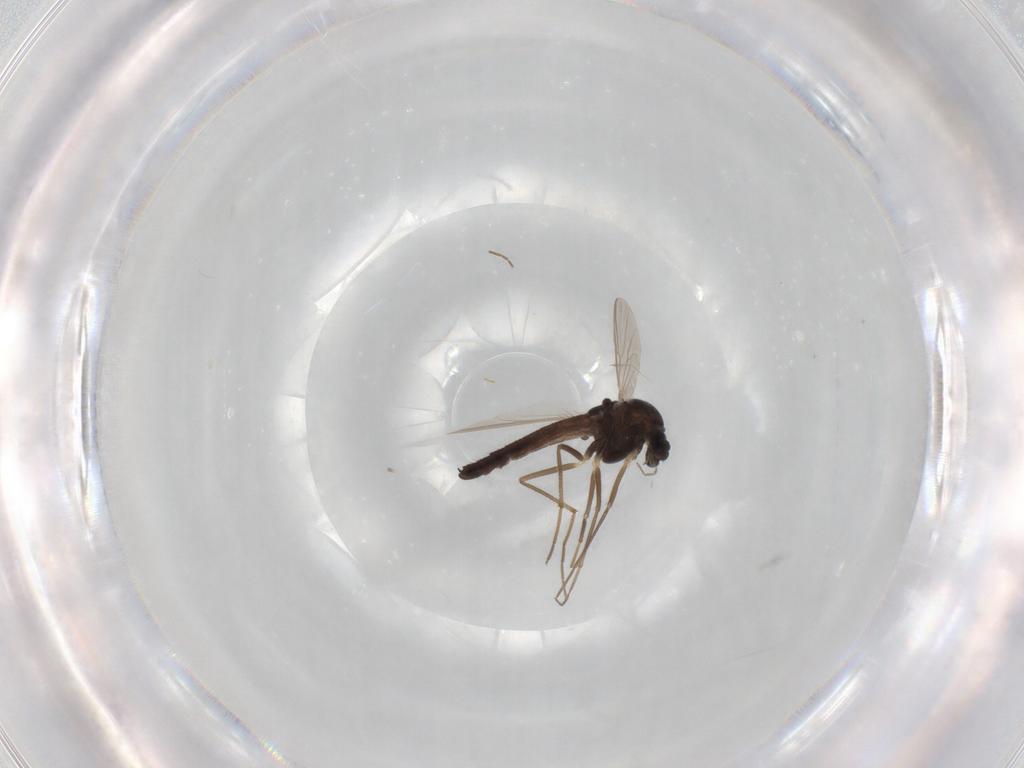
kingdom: Animalia
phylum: Arthropoda
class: Insecta
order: Diptera
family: Chironomidae
